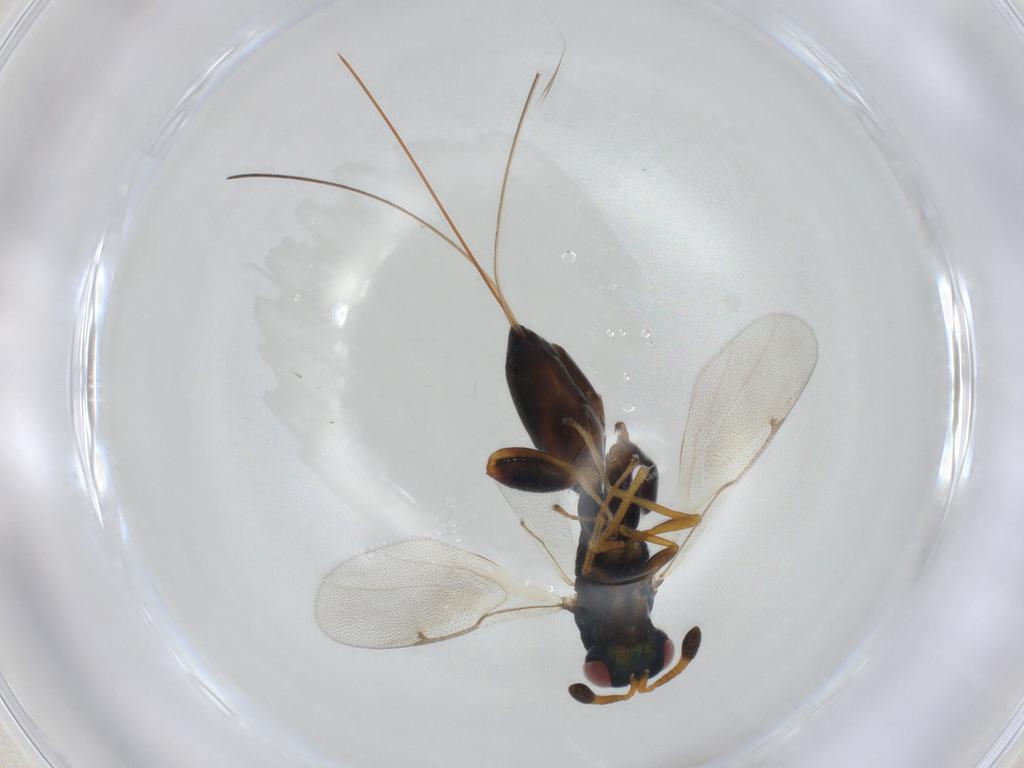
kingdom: Animalia
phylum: Arthropoda
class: Insecta
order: Hymenoptera
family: Torymidae
